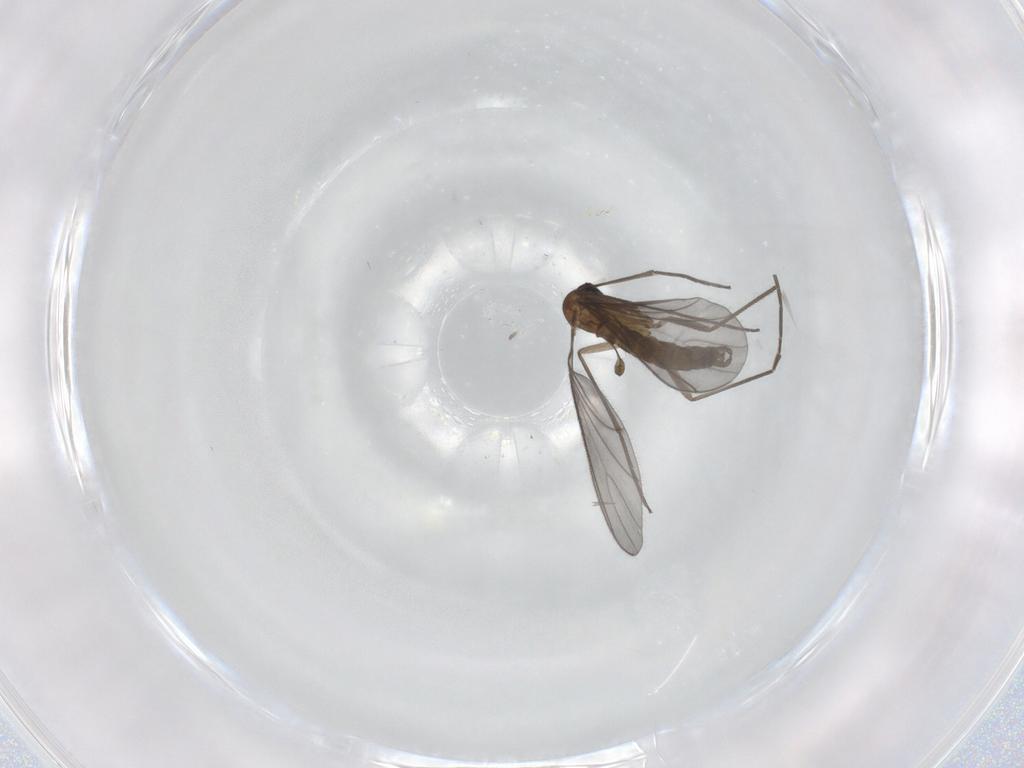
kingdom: Animalia
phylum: Arthropoda
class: Insecta
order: Diptera
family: Sciaridae
